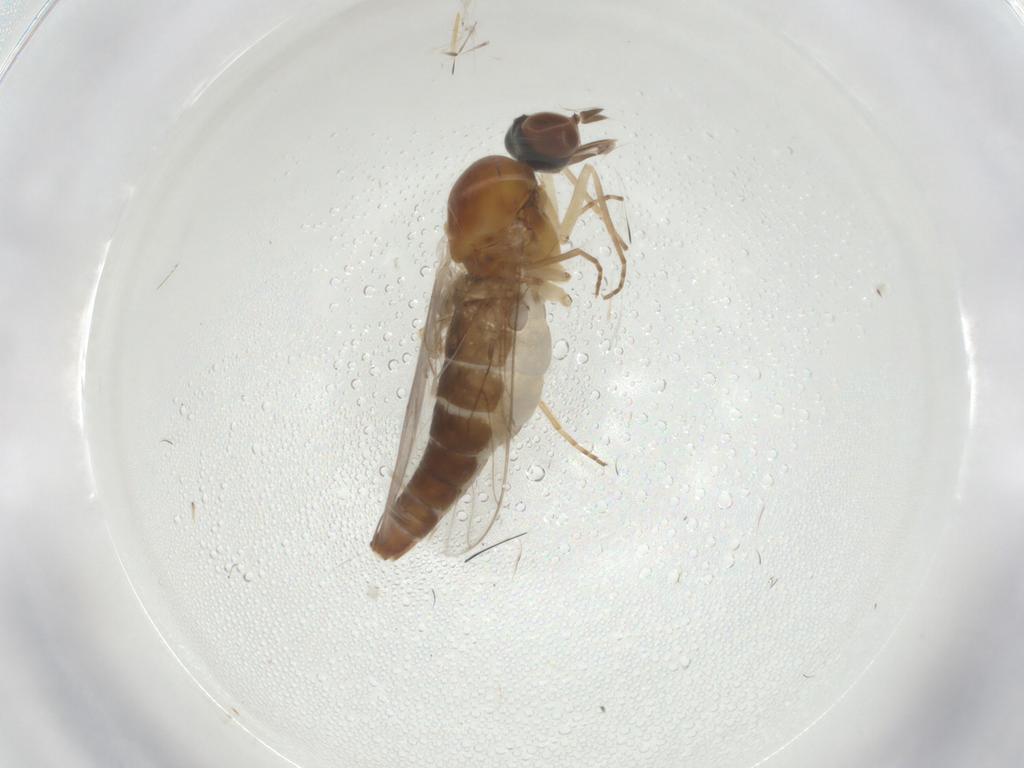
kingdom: Animalia
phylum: Arthropoda
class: Insecta
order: Diptera
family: Scenopinidae
